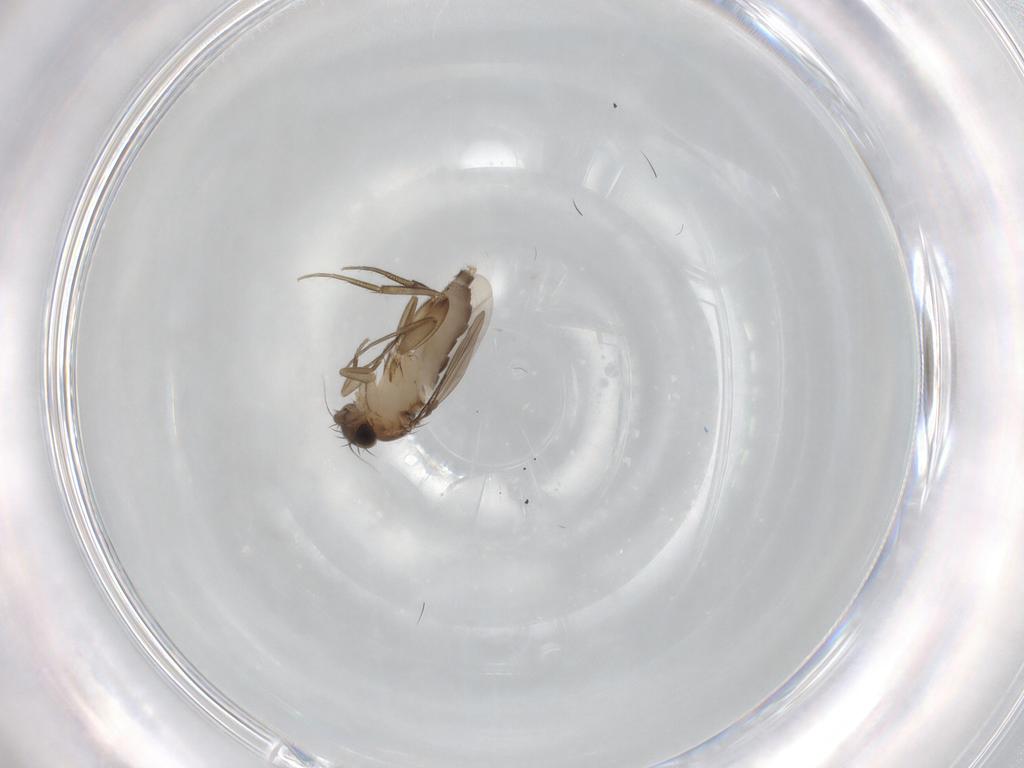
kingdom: Animalia
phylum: Arthropoda
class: Insecta
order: Diptera
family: Phoridae
